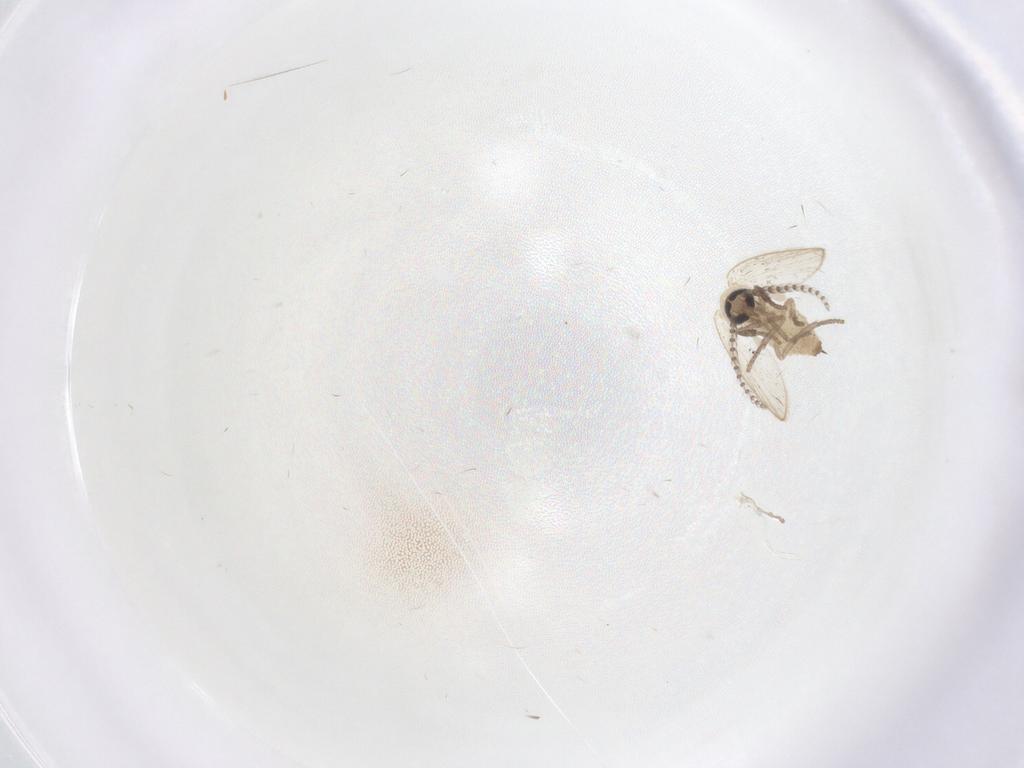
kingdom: Animalia
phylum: Arthropoda
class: Insecta
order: Diptera
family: Psychodidae
